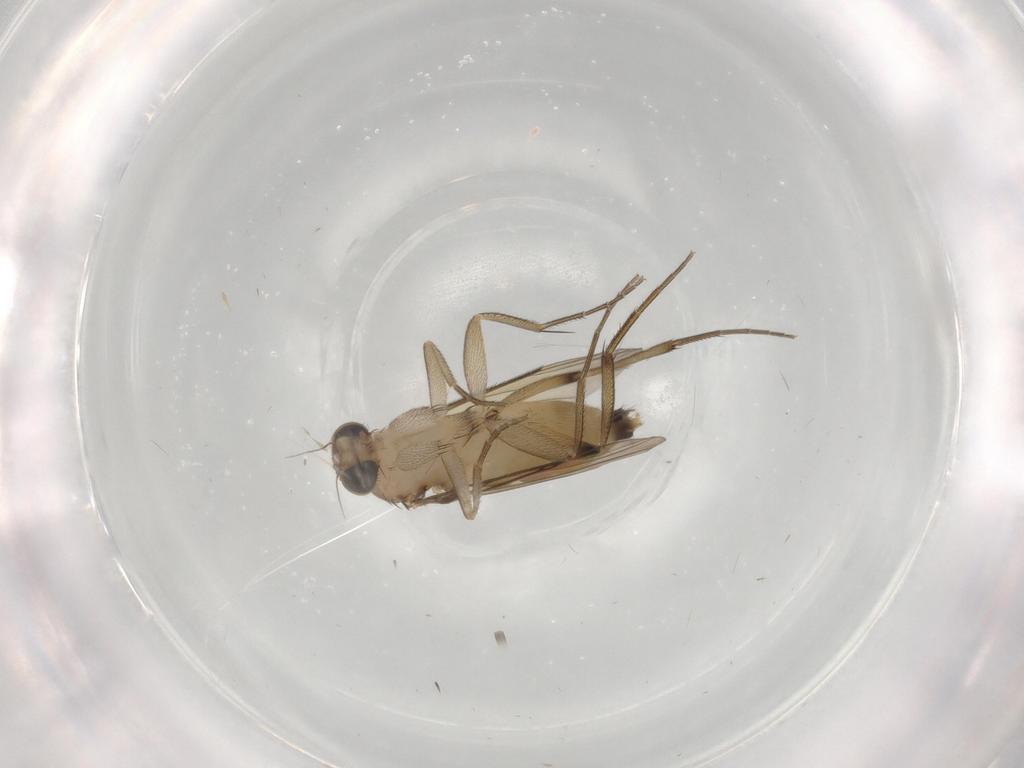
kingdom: Animalia
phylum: Arthropoda
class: Insecta
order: Diptera
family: Phoridae
